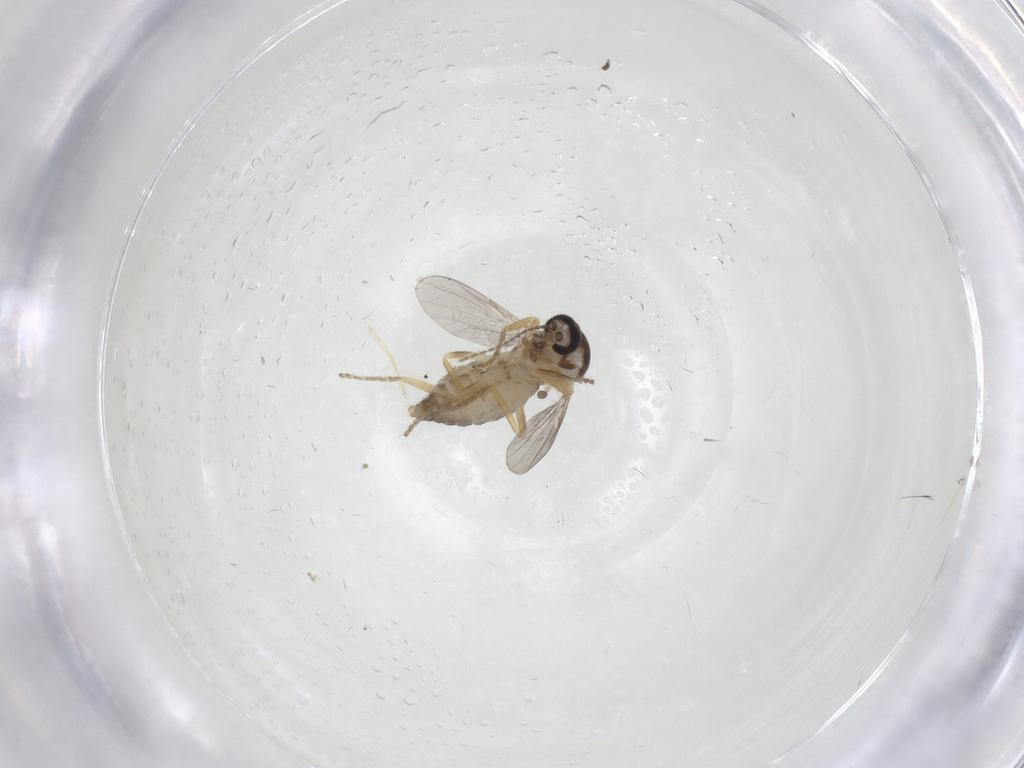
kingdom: Animalia
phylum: Arthropoda
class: Insecta
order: Diptera
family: Ceratopogonidae
